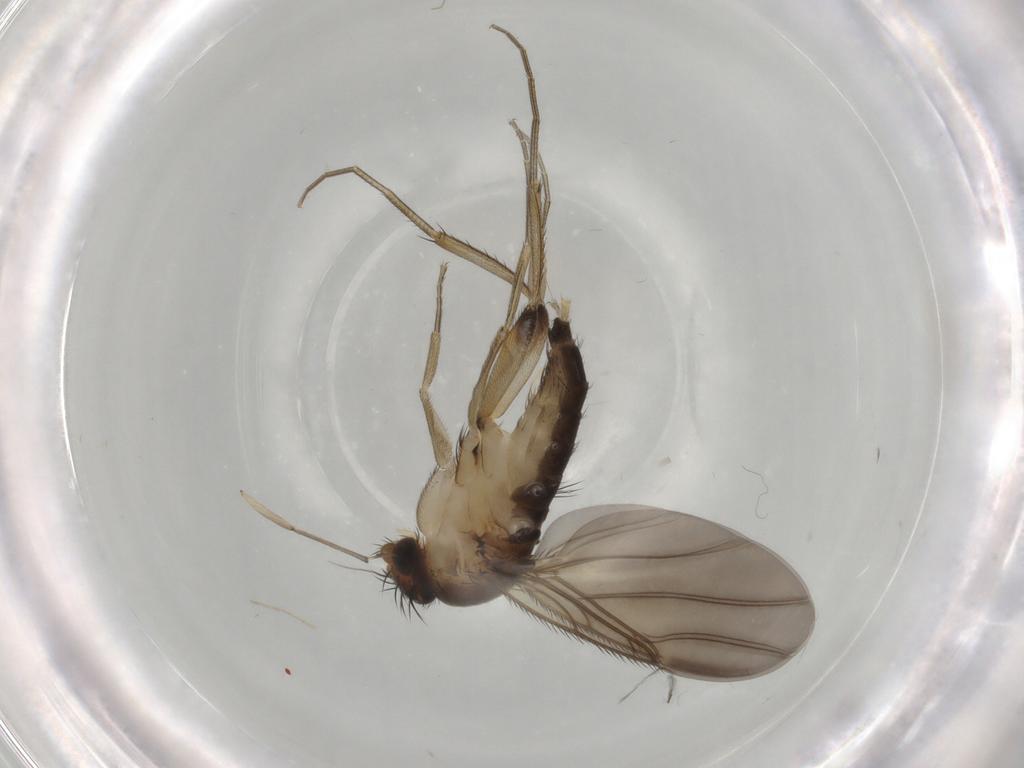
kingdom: Animalia
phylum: Arthropoda
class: Insecta
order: Diptera
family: Phoridae
